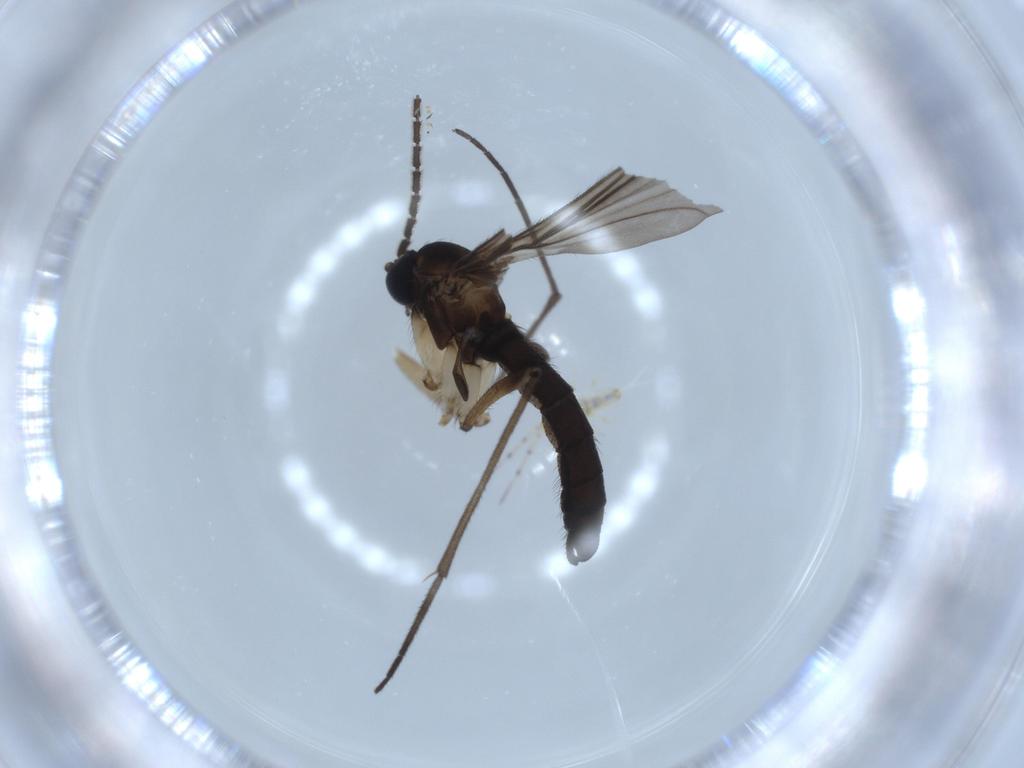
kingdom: Animalia
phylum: Arthropoda
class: Insecta
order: Diptera
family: Sciaridae
